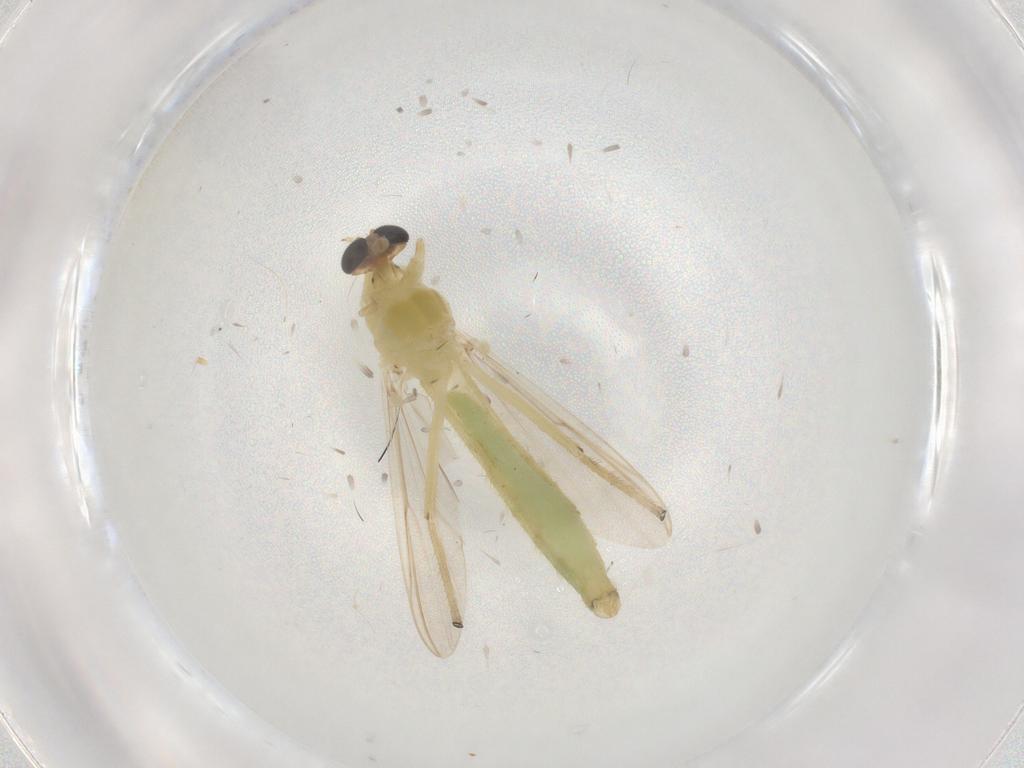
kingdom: Animalia
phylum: Arthropoda
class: Insecta
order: Diptera
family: Chironomidae
